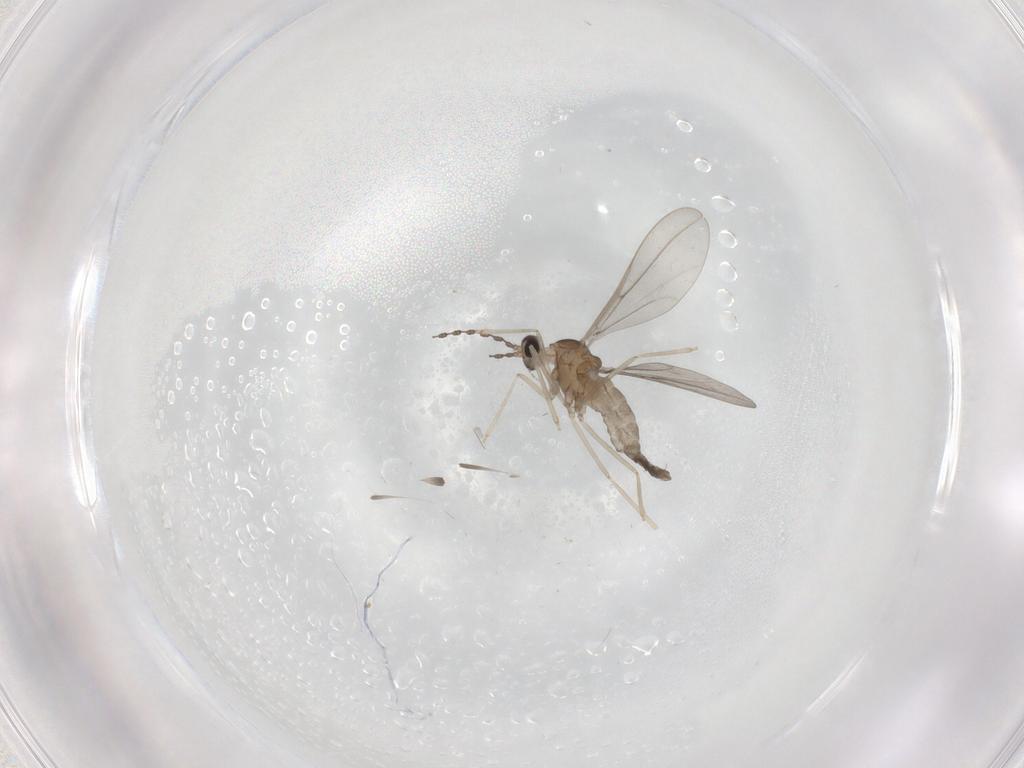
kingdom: Animalia
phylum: Arthropoda
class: Insecta
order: Diptera
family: Cecidomyiidae
